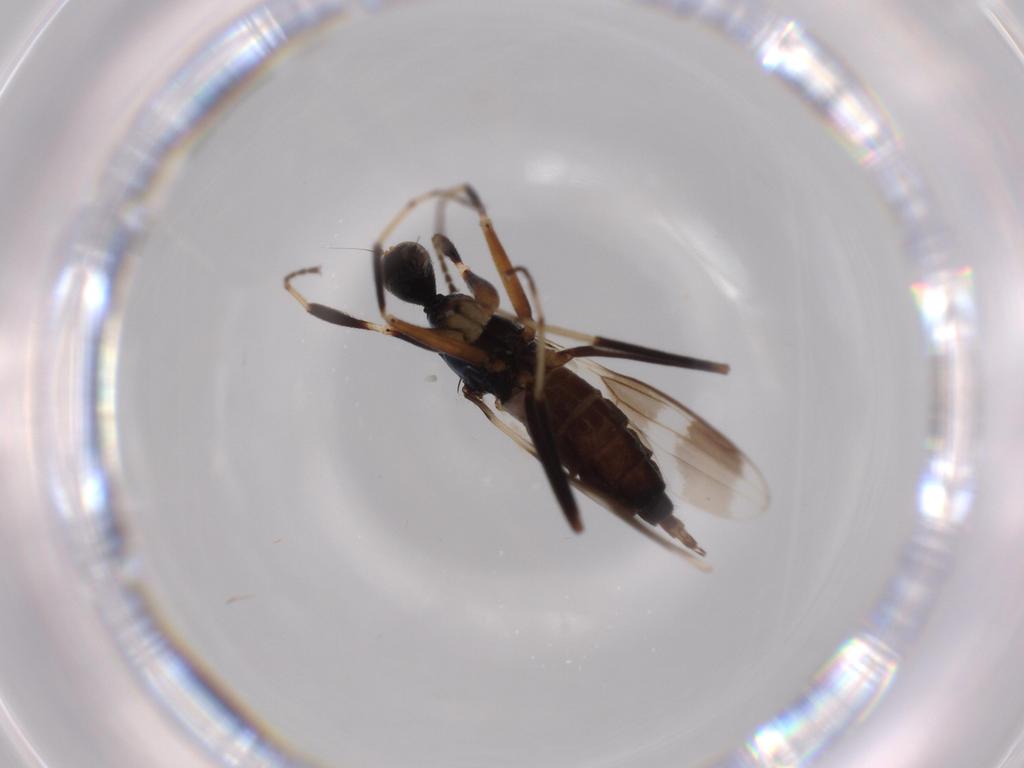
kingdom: Animalia
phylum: Arthropoda
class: Insecta
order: Diptera
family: Hybotidae
